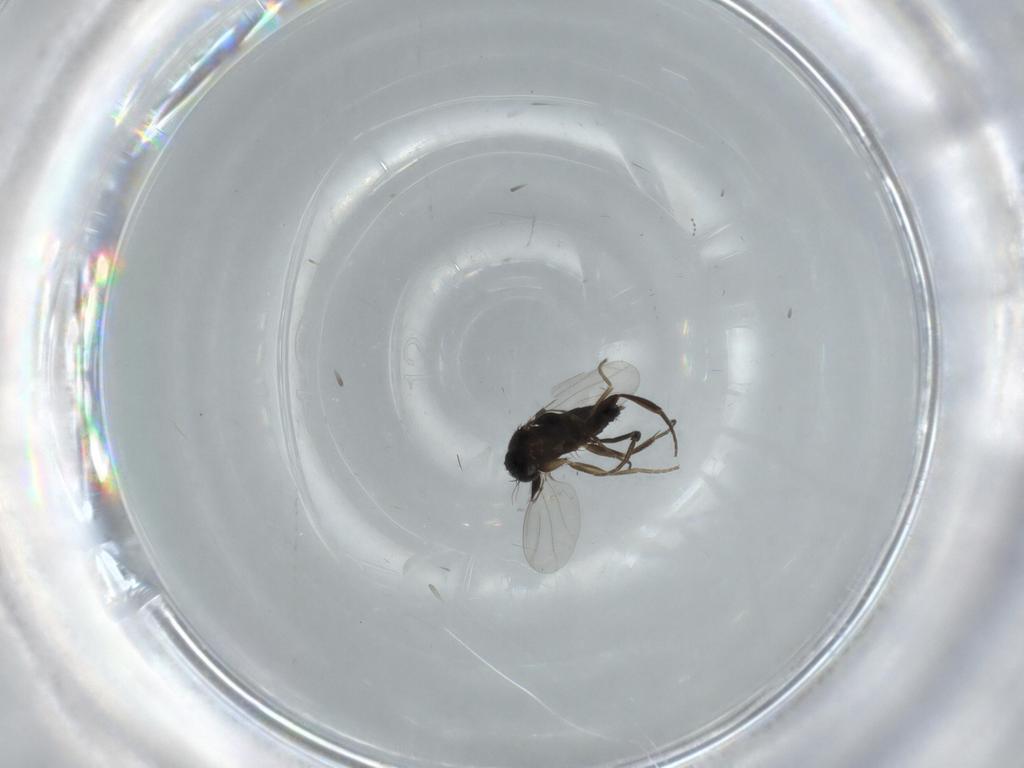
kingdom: Animalia
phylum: Arthropoda
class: Insecta
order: Diptera
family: Phoridae
